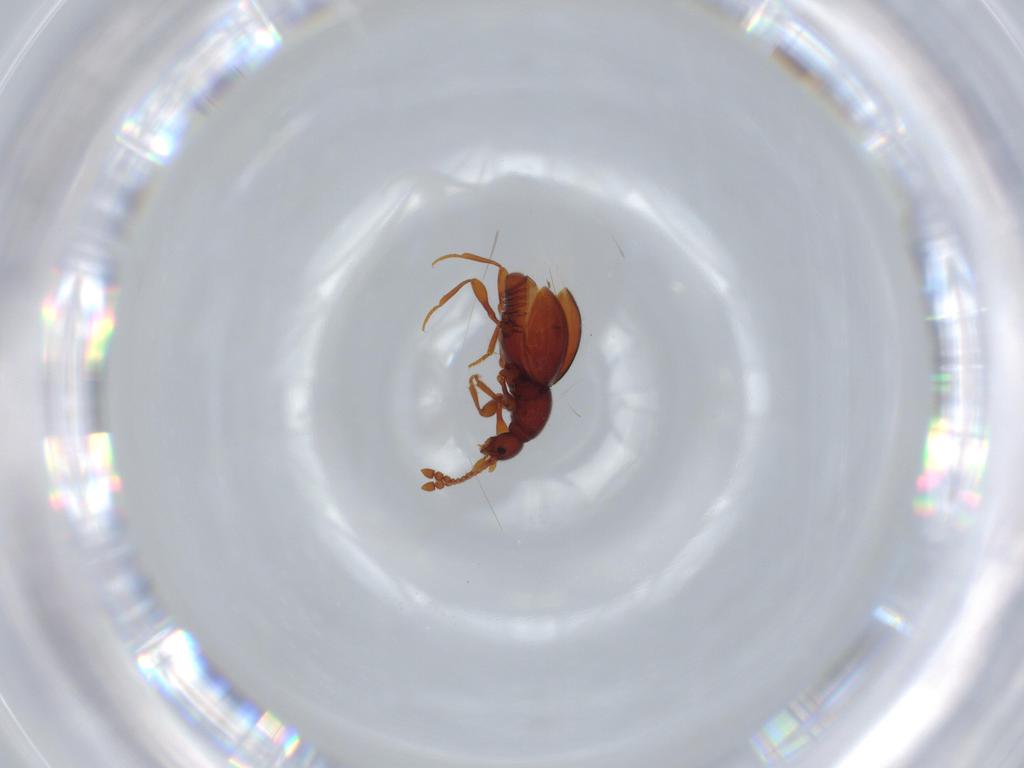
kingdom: Animalia
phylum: Arthropoda
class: Insecta
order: Coleoptera
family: Staphylinidae
